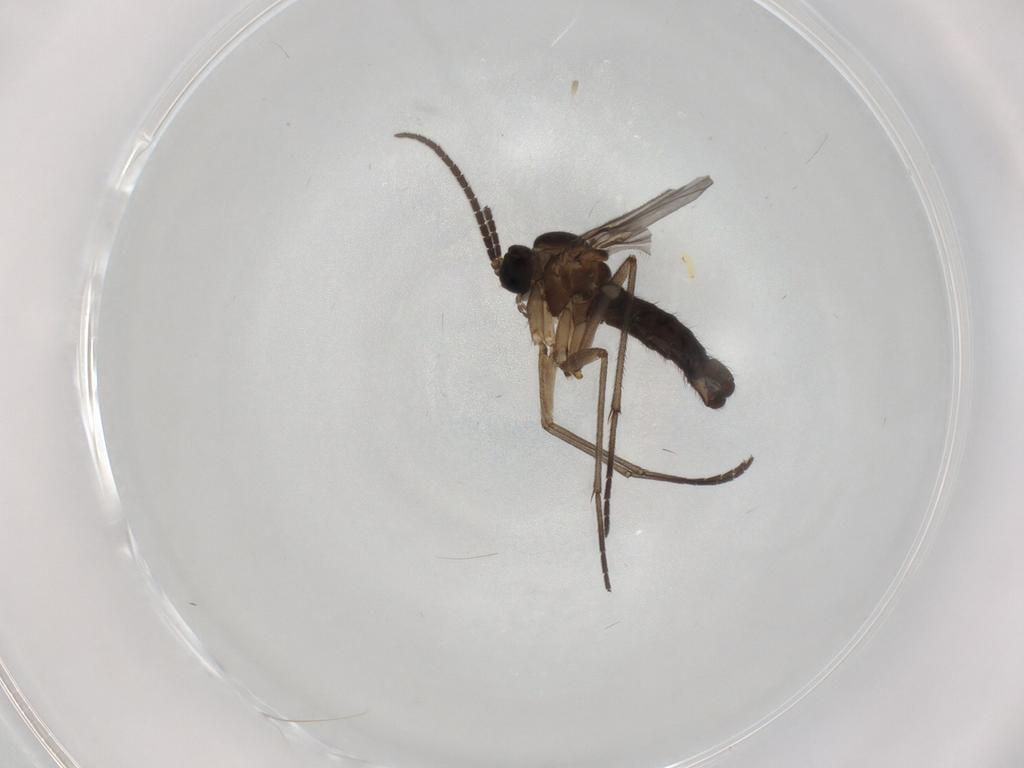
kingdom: Animalia
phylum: Arthropoda
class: Insecta
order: Diptera
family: Sciaridae
